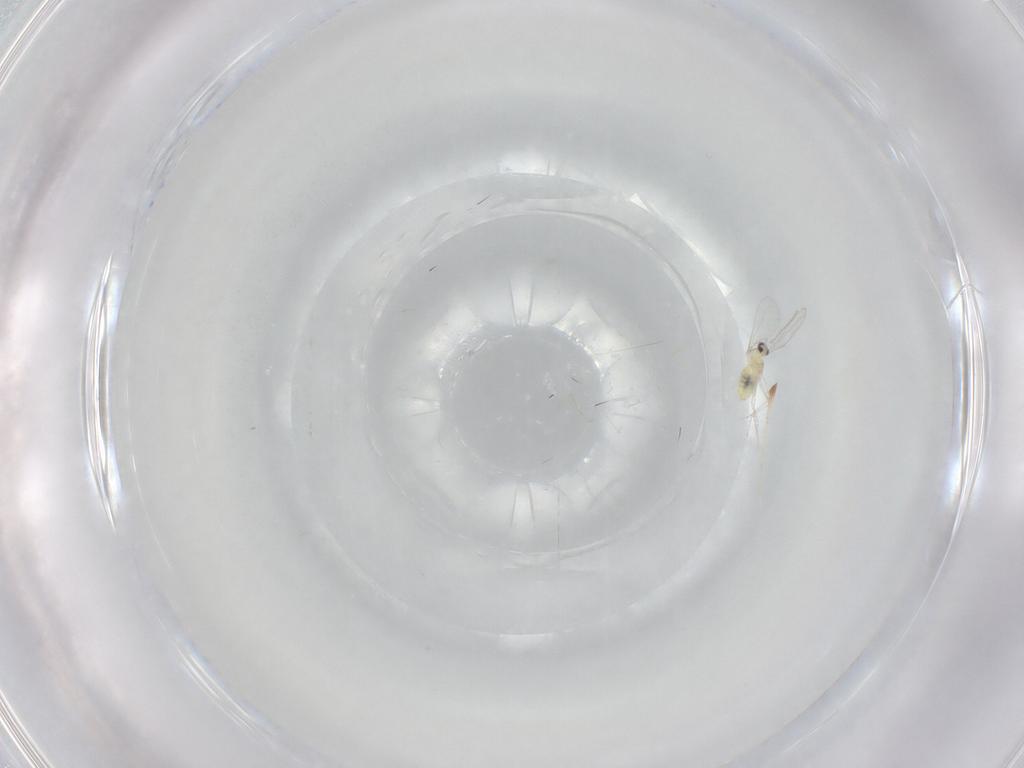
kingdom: Animalia
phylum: Arthropoda
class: Insecta
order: Diptera
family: Cecidomyiidae
